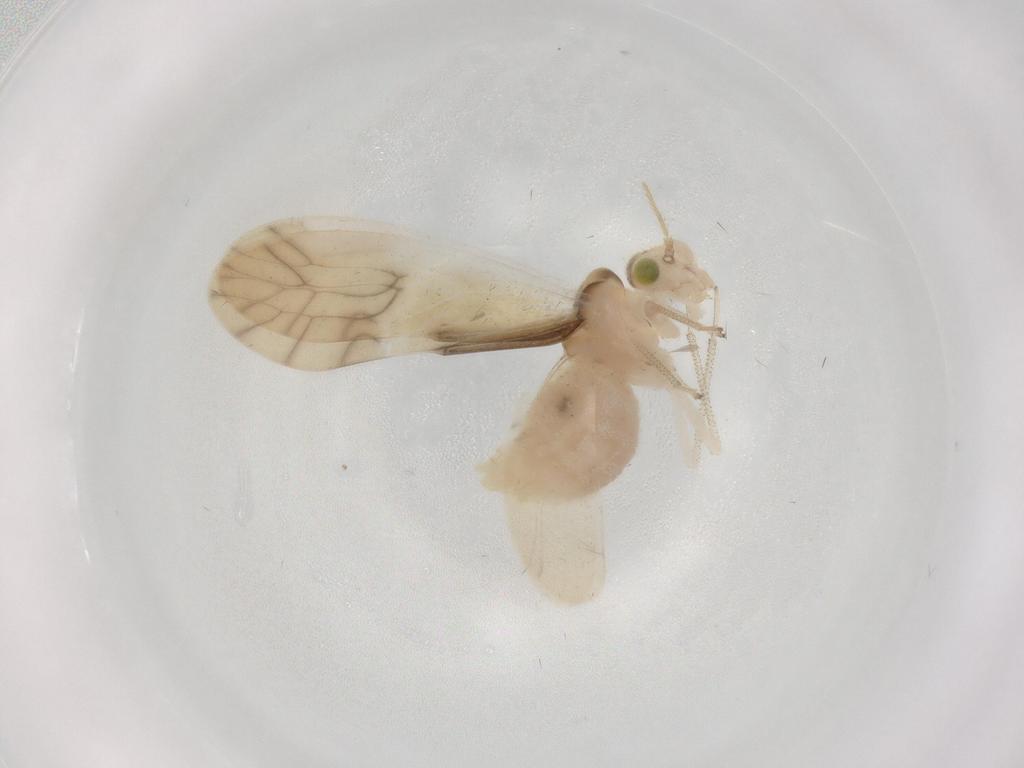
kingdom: Animalia
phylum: Arthropoda
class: Insecta
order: Psocodea
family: Caeciliusidae
